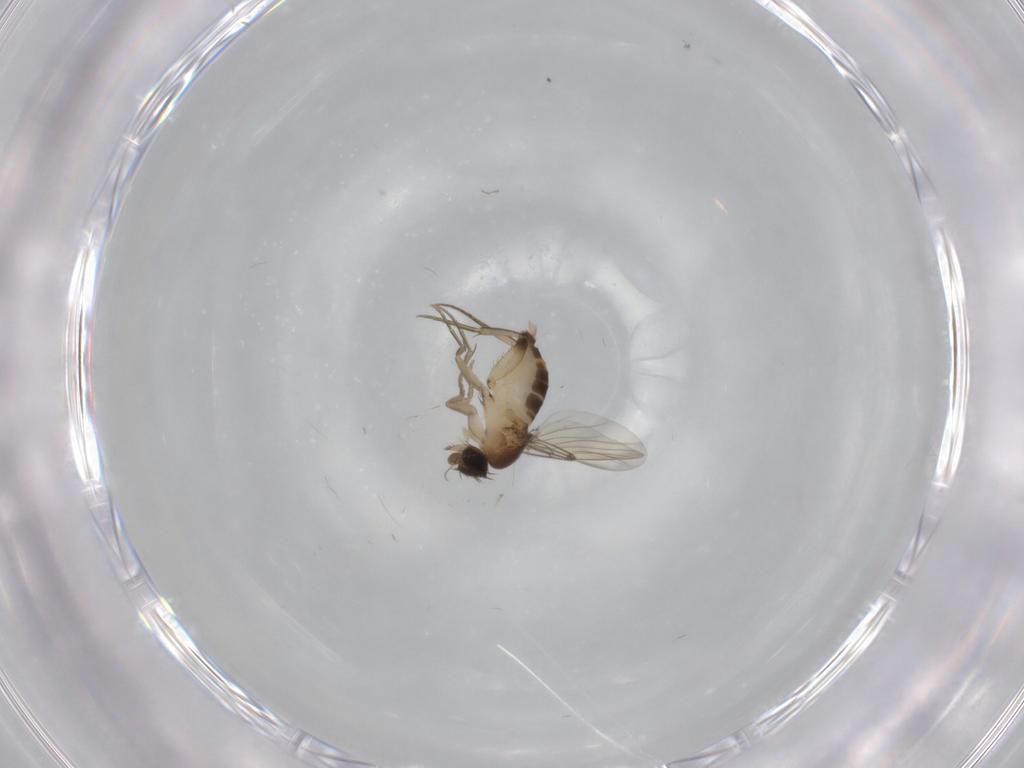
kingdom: Animalia
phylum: Arthropoda
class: Insecta
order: Diptera
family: Phoridae
